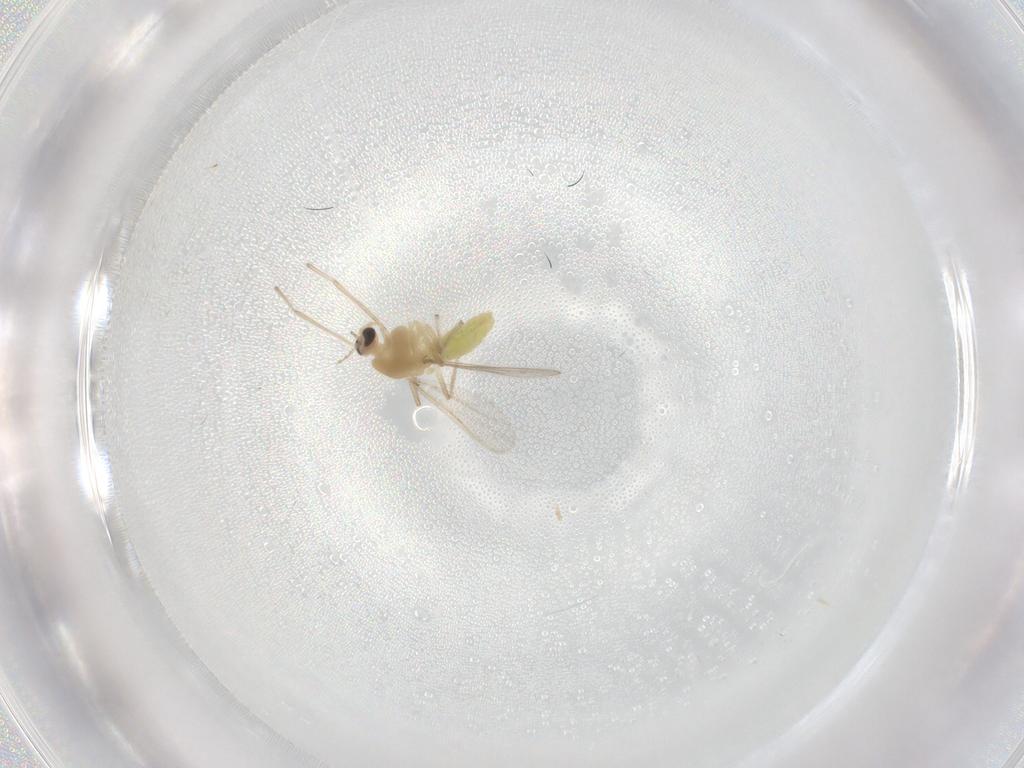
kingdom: Animalia
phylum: Arthropoda
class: Insecta
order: Diptera
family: Chironomidae
